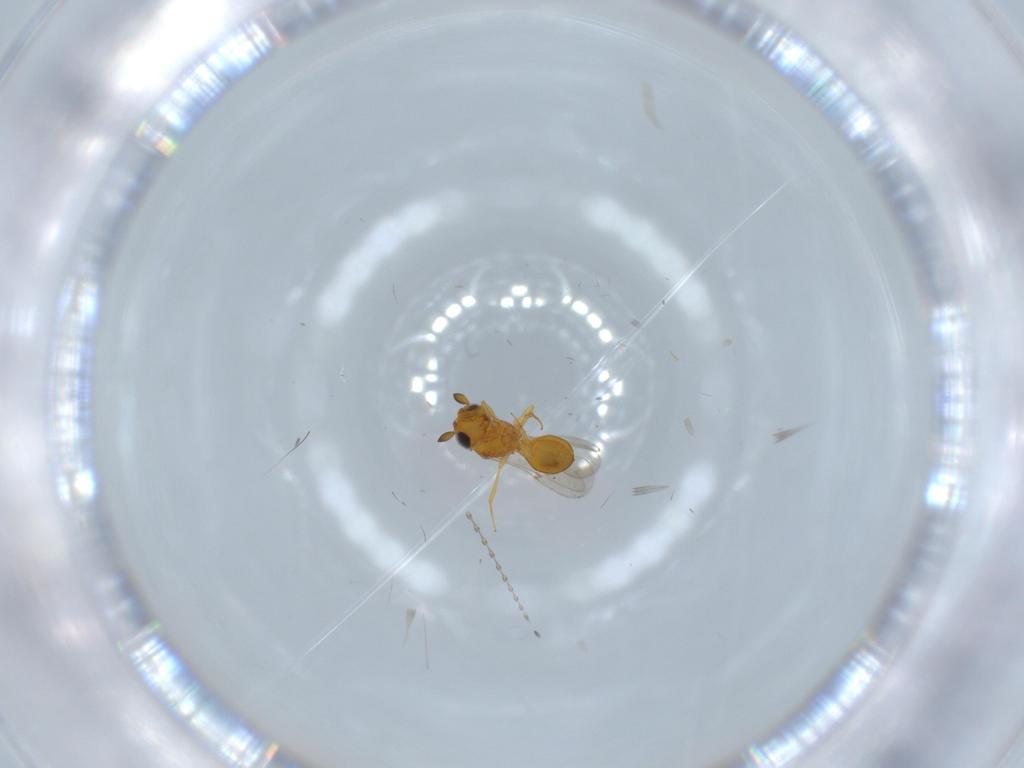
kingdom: Animalia
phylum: Arthropoda
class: Insecta
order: Hymenoptera
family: Scelionidae
